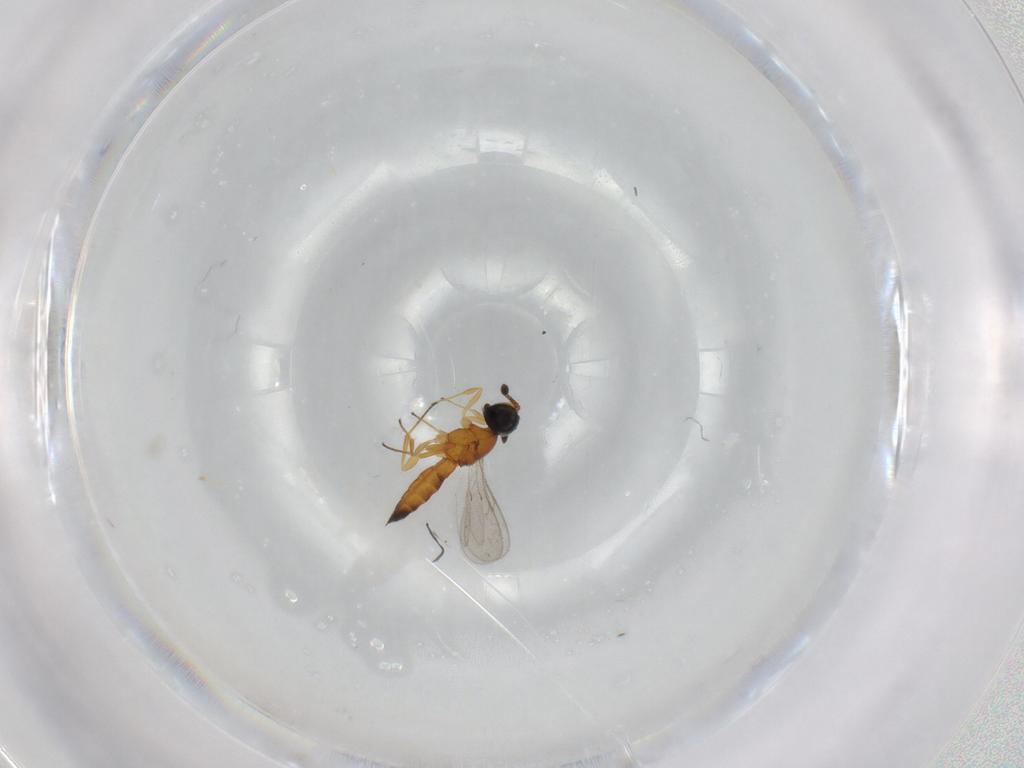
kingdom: Animalia
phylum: Arthropoda
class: Insecta
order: Hymenoptera
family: Scelionidae
